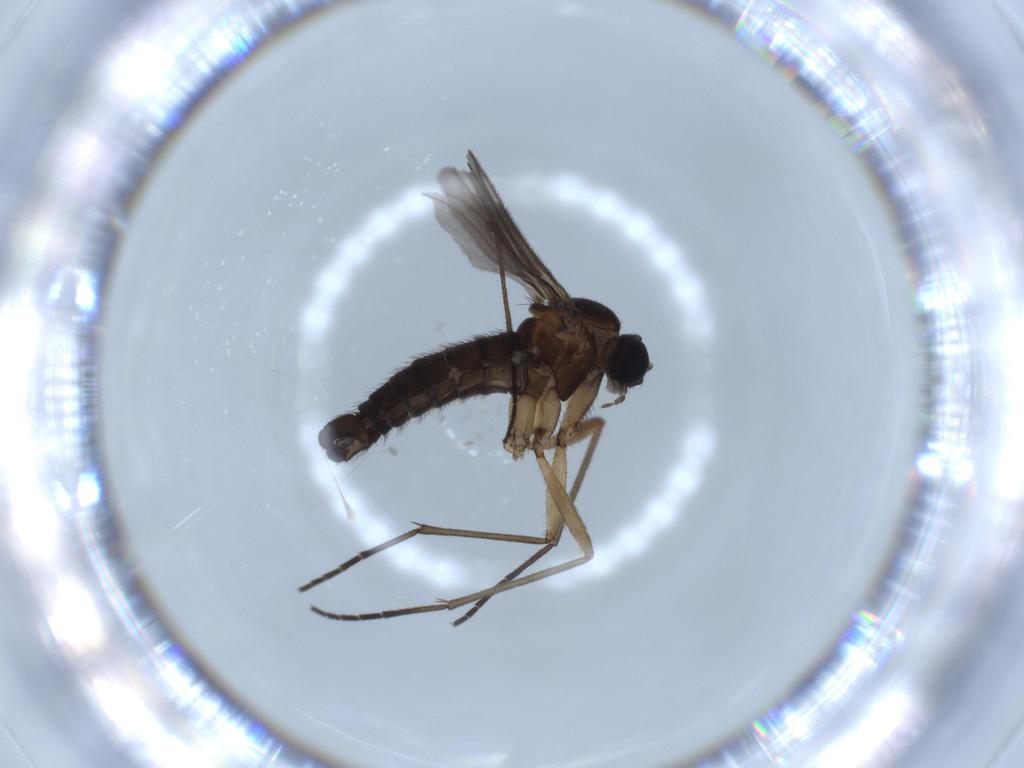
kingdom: Animalia
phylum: Arthropoda
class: Insecta
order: Diptera
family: Sciaridae
